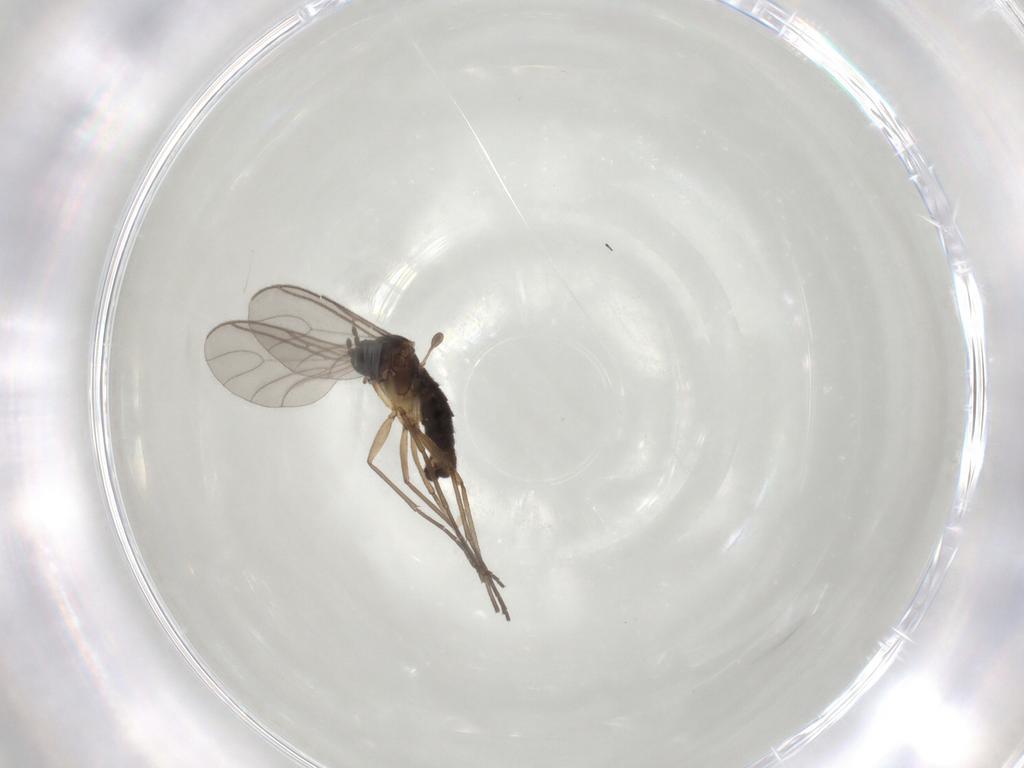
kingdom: Animalia
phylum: Arthropoda
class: Insecta
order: Diptera
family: Sciaridae
